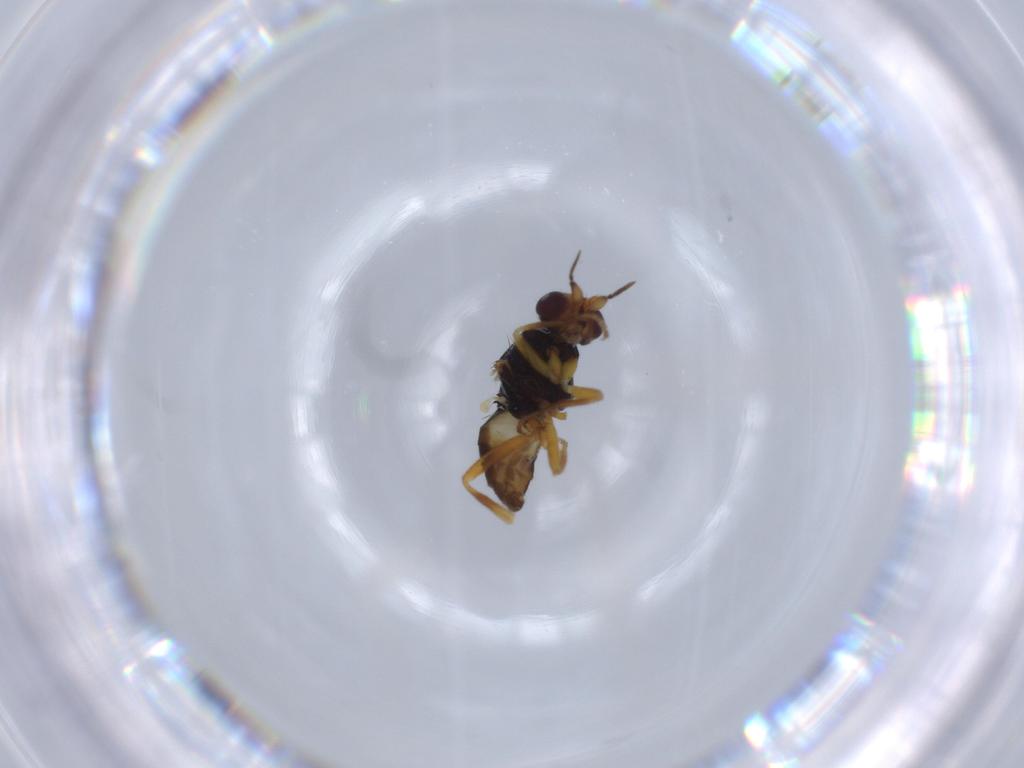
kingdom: Animalia
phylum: Arthropoda
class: Insecta
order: Diptera
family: Chloropidae
